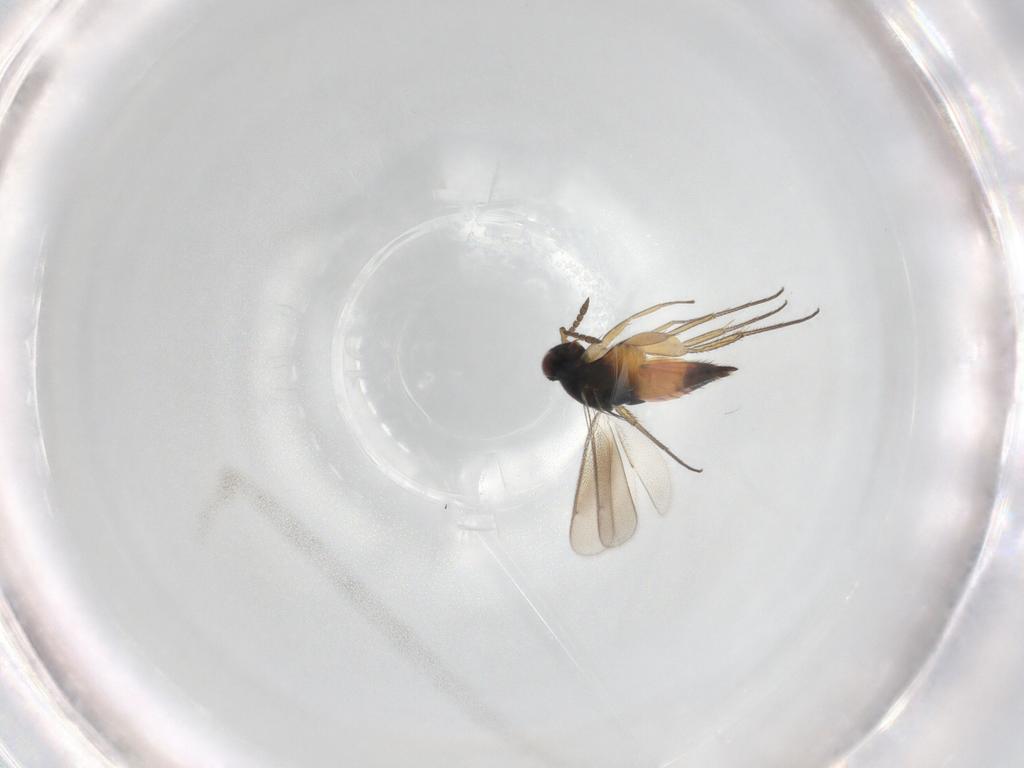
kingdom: Animalia
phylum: Arthropoda
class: Insecta
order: Hymenoptera
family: Eulophidae
